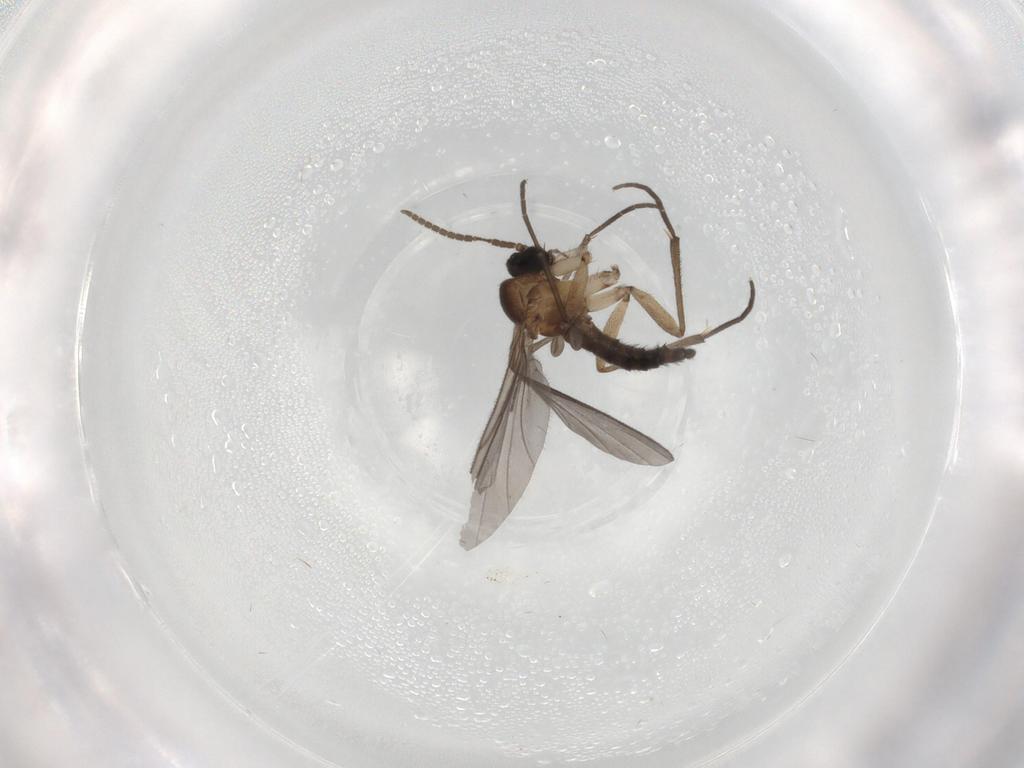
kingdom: Animalia
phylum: Arthropoda
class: Insecta
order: Diptera
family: Cecidomyiidae
